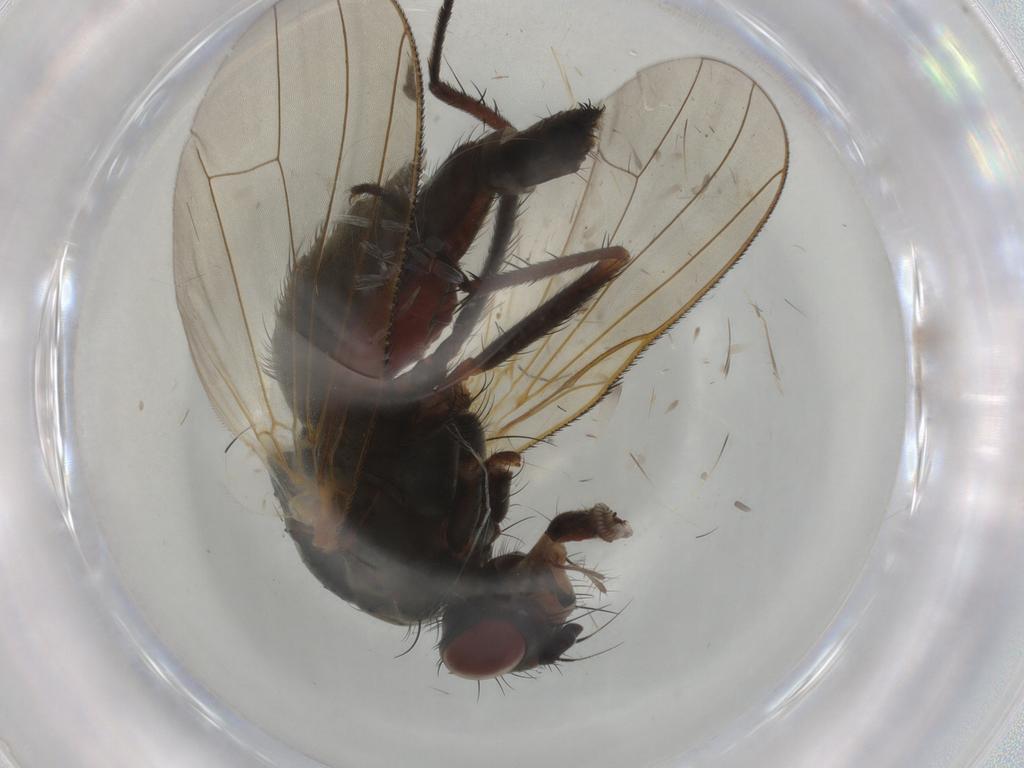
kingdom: Animalia
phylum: Arthropoda
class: Insecta
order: Diptera
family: Anthomyiidae
